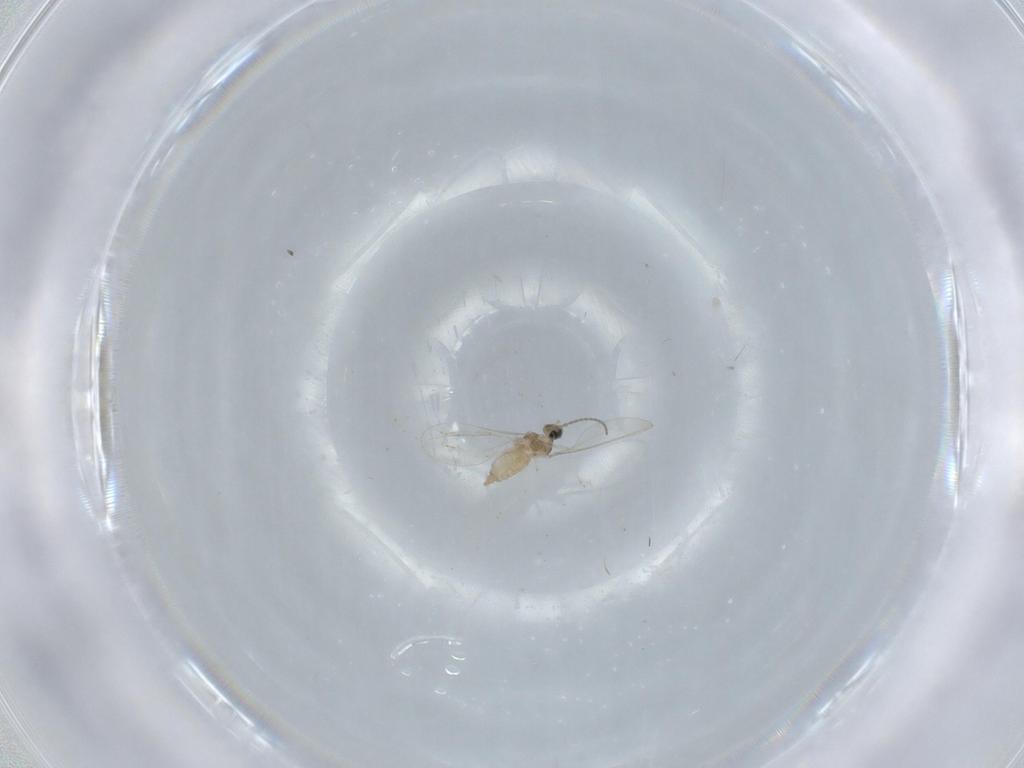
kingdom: Animalia
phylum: Arthropoda
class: Insecta
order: Diptera
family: Cecidomyiidae
